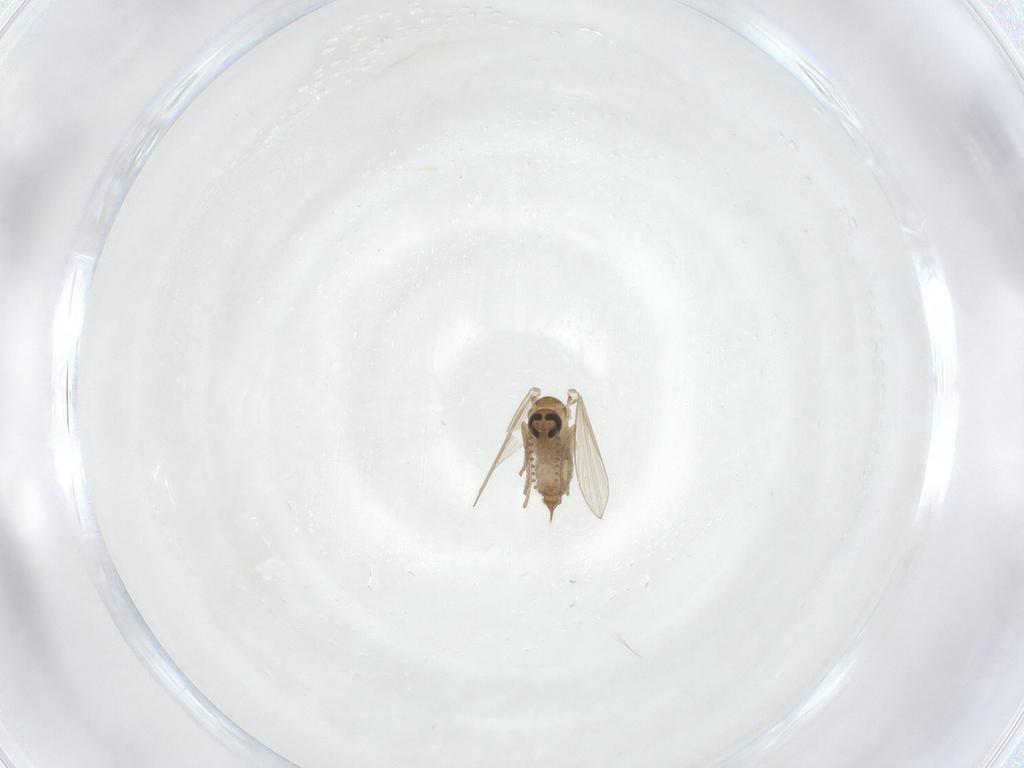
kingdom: Animalia
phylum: Arthropoda
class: Insecta
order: Diptera
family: Psychodidae
